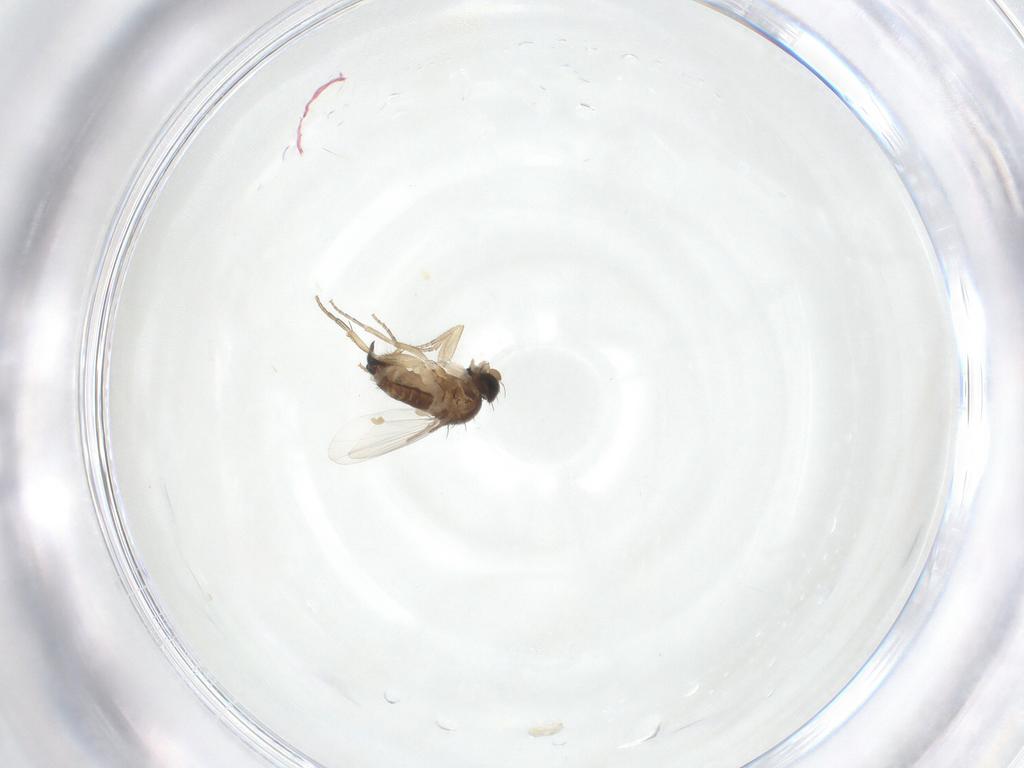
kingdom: Animalia
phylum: Arthropoda
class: Insecta
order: Diptera
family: Phoridae
